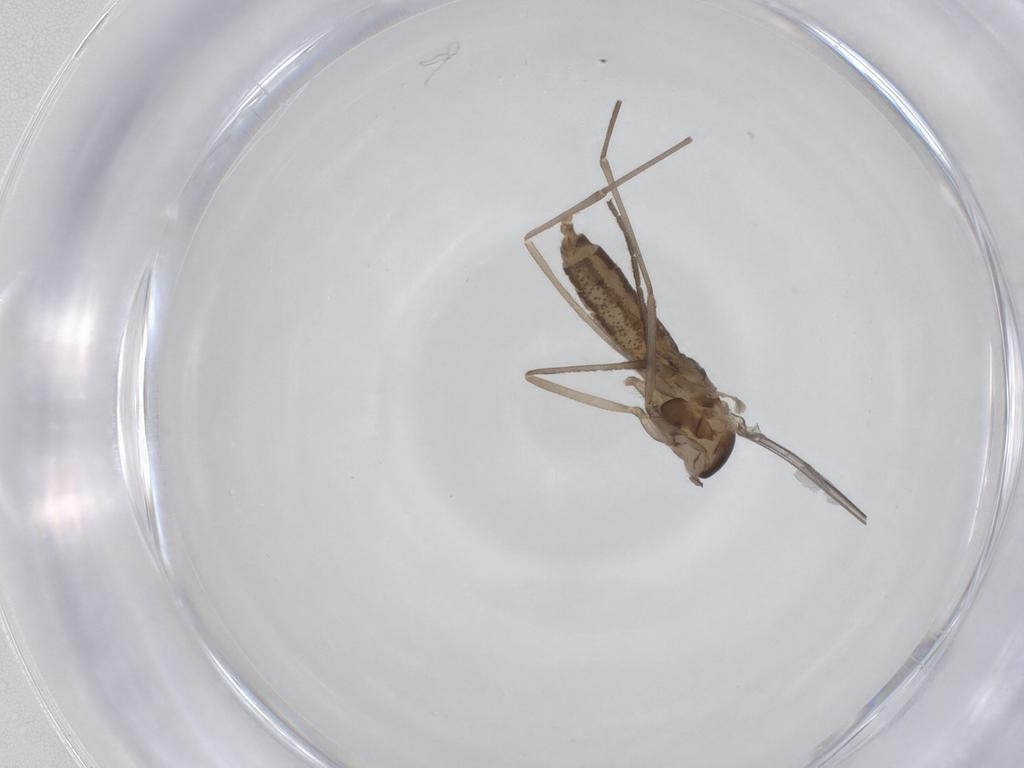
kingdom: Animalia
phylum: Arthropoda
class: Insecta
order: Diptera
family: Cecidomyiidae
